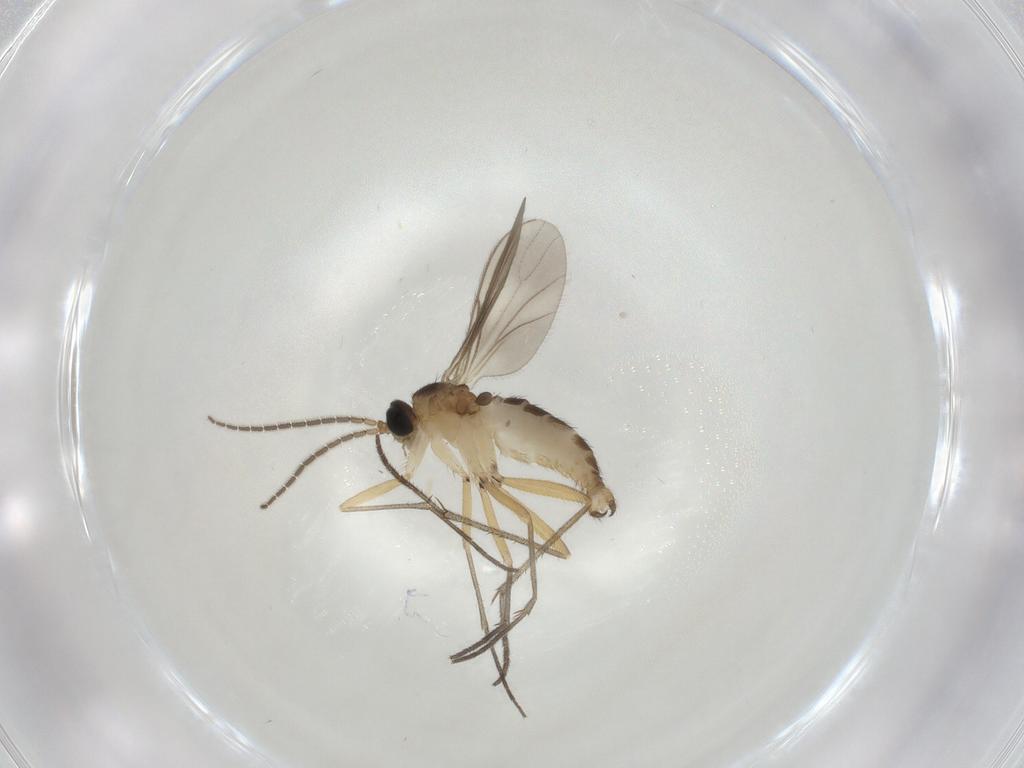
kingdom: Animalia
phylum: Arthropoda
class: Insecta
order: Diptera
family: Sciaridae
